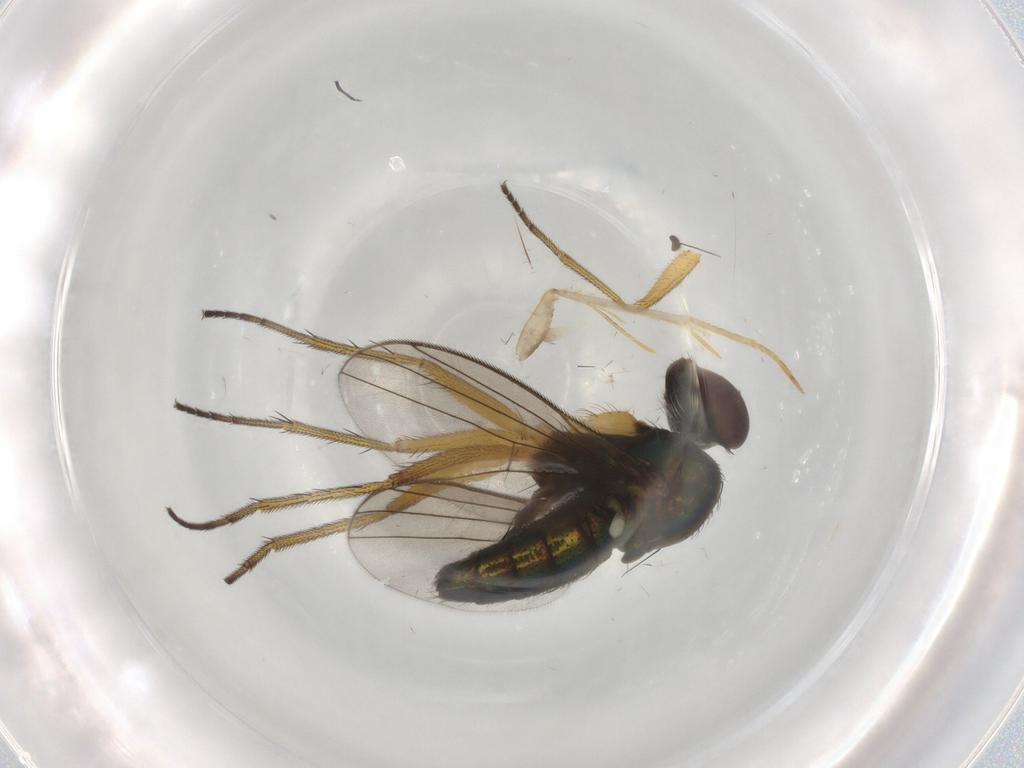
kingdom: Animalia
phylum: Arthropoda
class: Insecta
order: Diptera
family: Dolichopodidae
